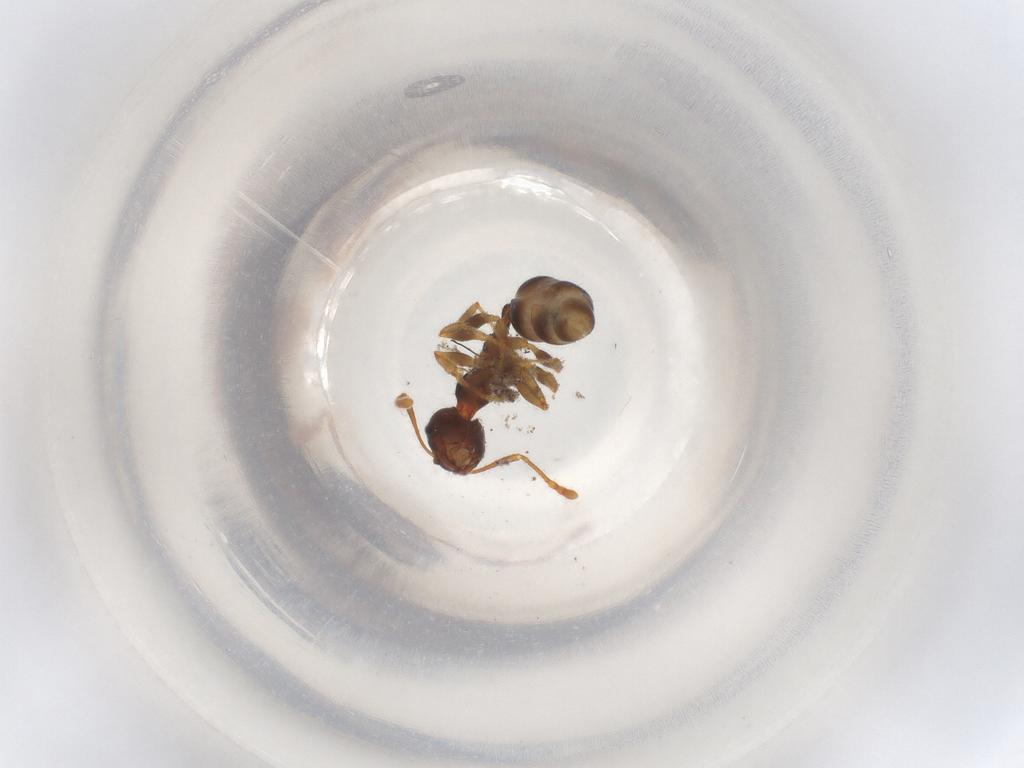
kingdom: Animalia
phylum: Arthropoda
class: Insecta
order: Hymenoptera
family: Formicidae
